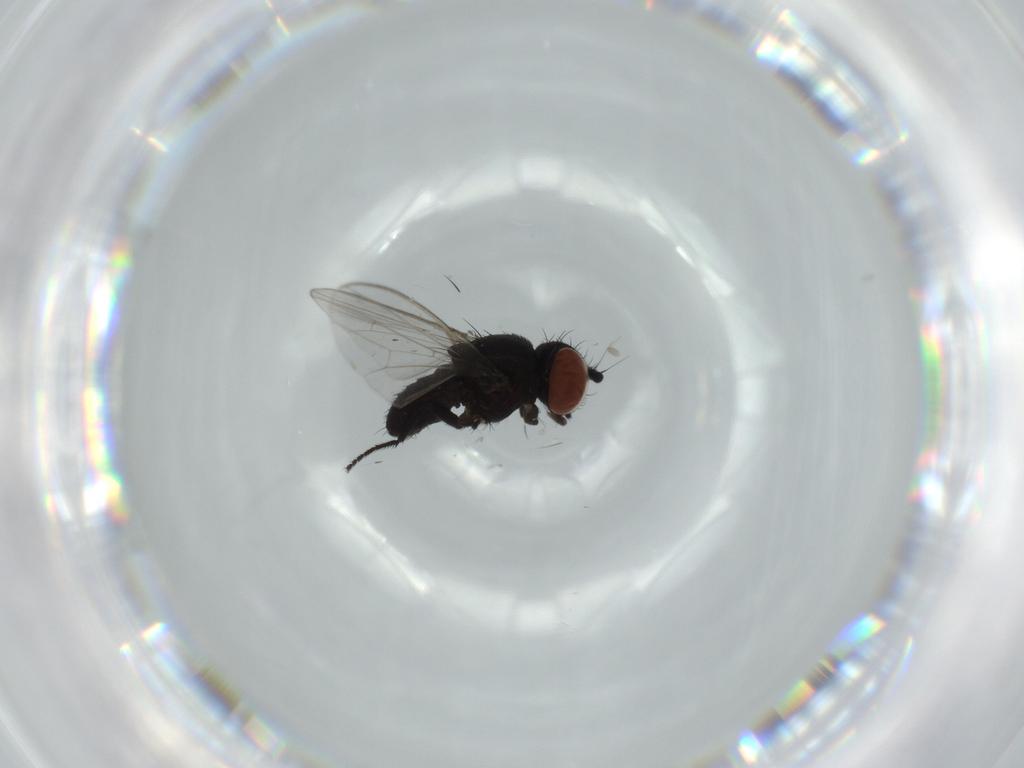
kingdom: Animalia
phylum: Arthropoda
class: Insecta
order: Diptera
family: Milichiidae
